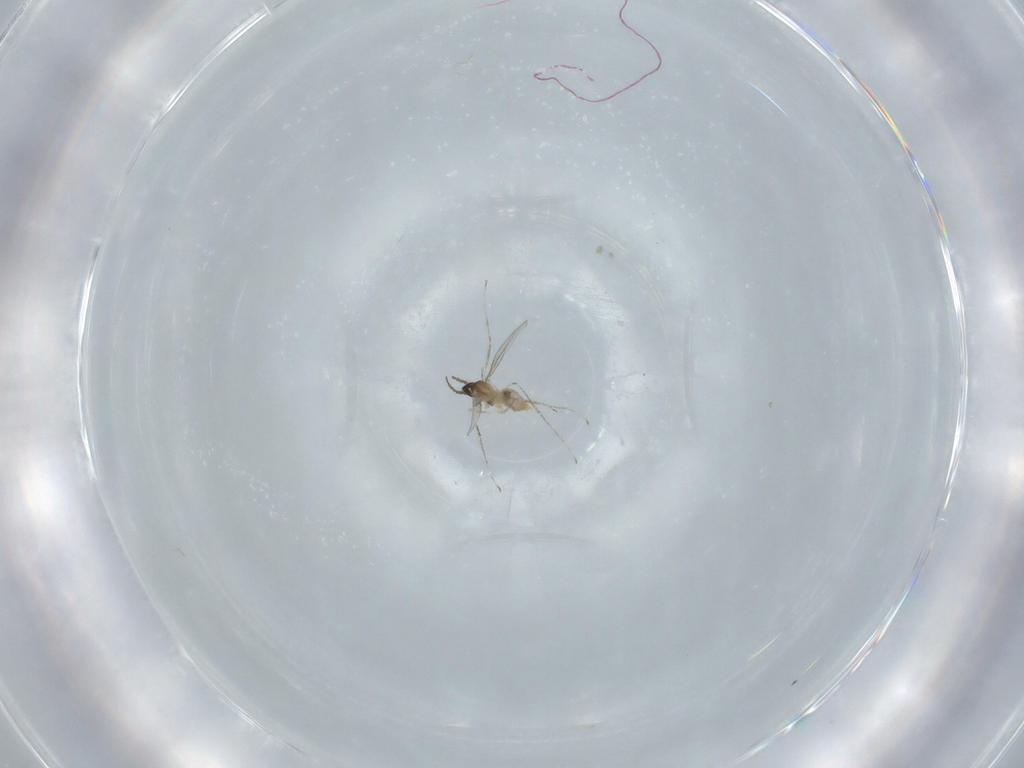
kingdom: Animalia
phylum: Arthropoda
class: Insecta
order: Diptera
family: Cecidomyiidae
